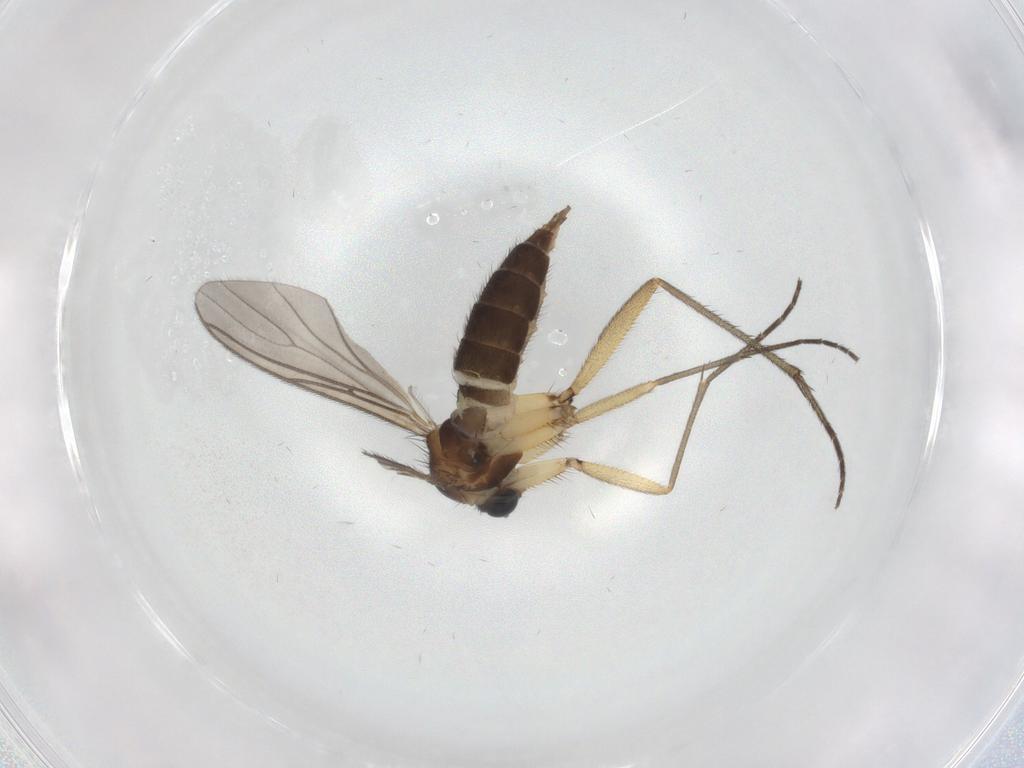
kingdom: Animalia
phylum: Arthropoda
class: Insecta
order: Diptera
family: Sciaridae
